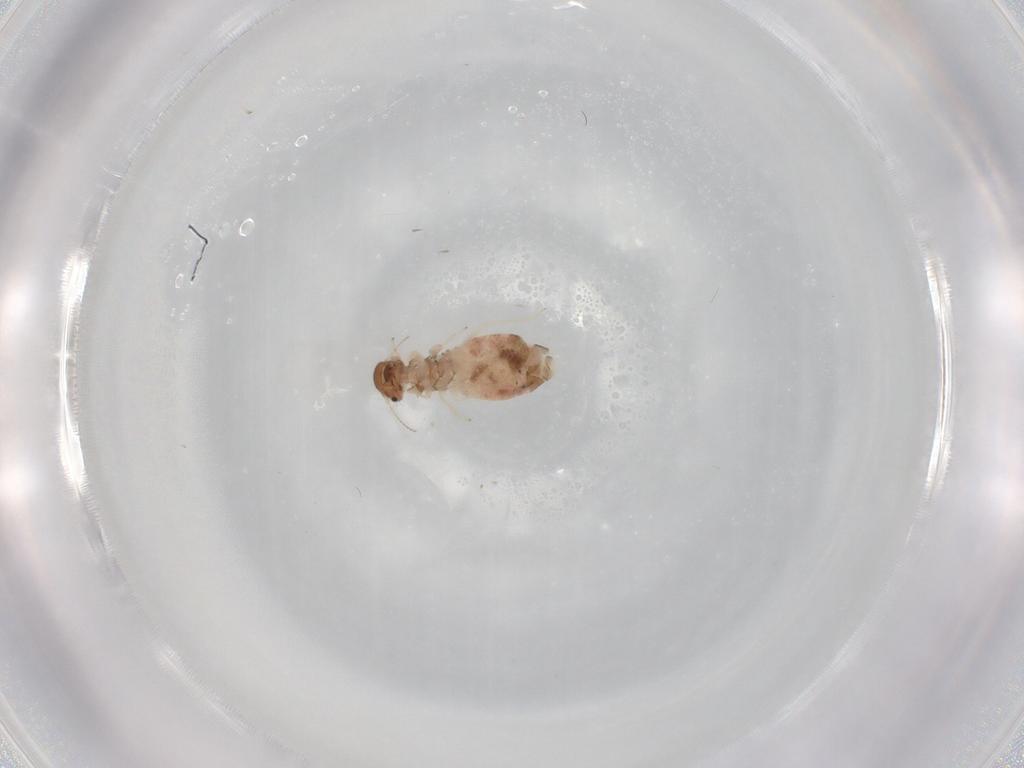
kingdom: Animalia
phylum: Arthropoda
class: Insecta
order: Psocodea
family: Archipsocidae
